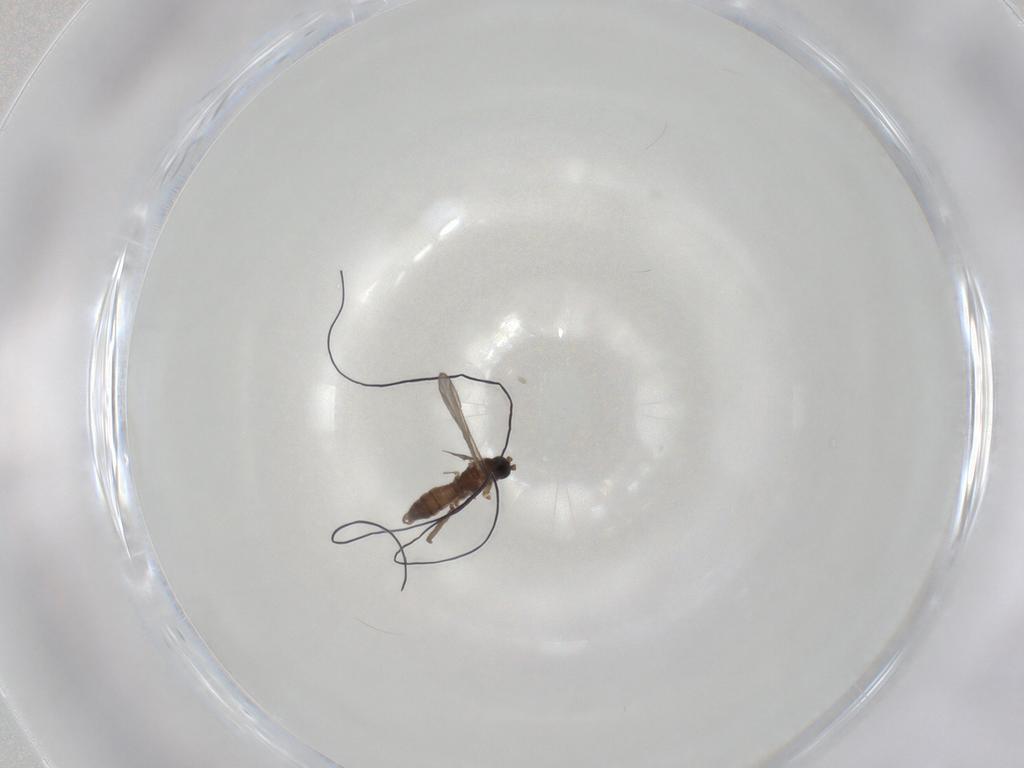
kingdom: Animalia
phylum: Arthropoda
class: Insecta
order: Diptera
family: Sciaridae
